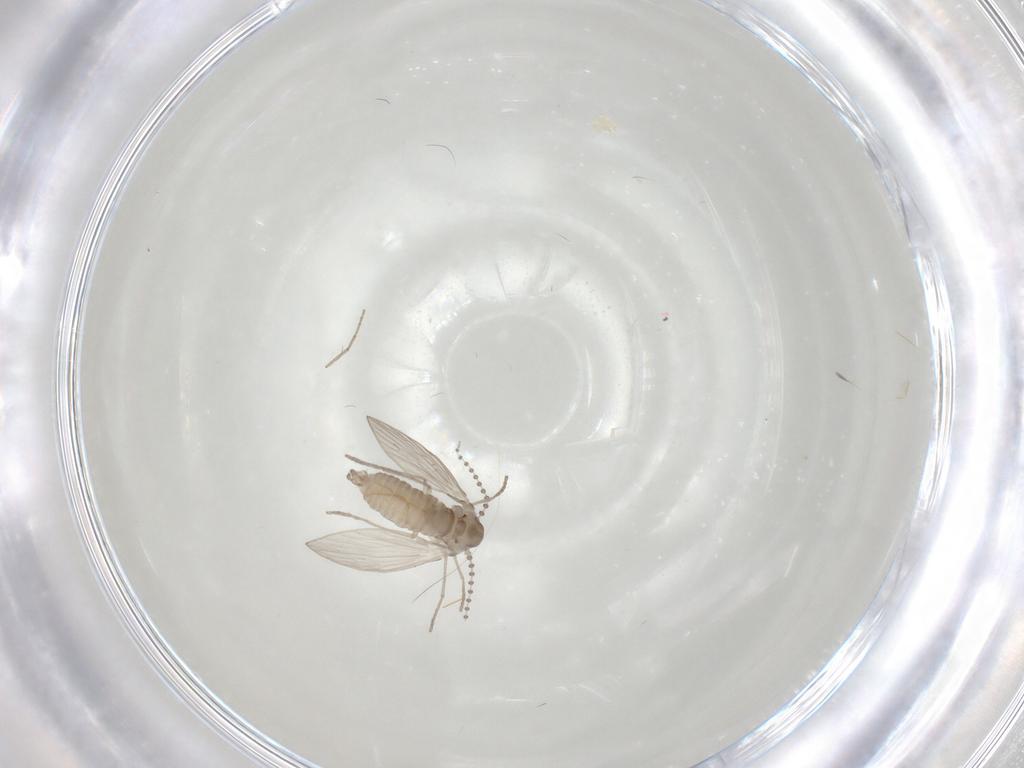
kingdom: Animalia
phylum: Arthropoda
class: Insecta
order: Diptera
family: Psychodidae
